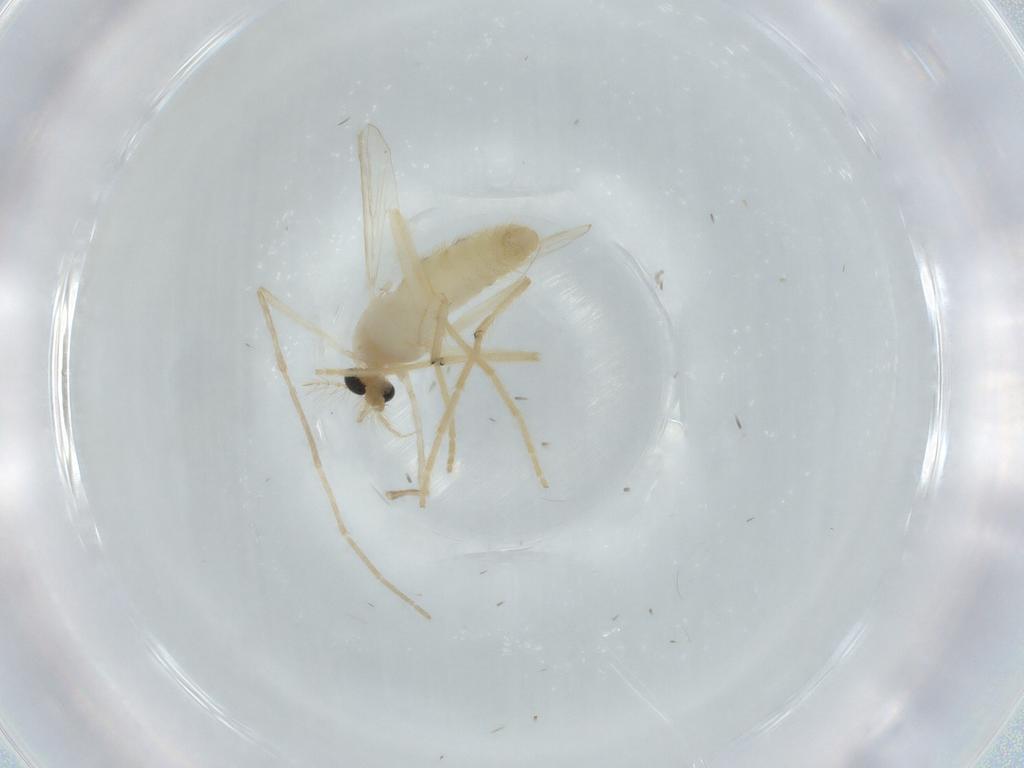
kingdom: Animalia
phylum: Arthropoda
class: Insecta
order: Diptera
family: Chironomidae
